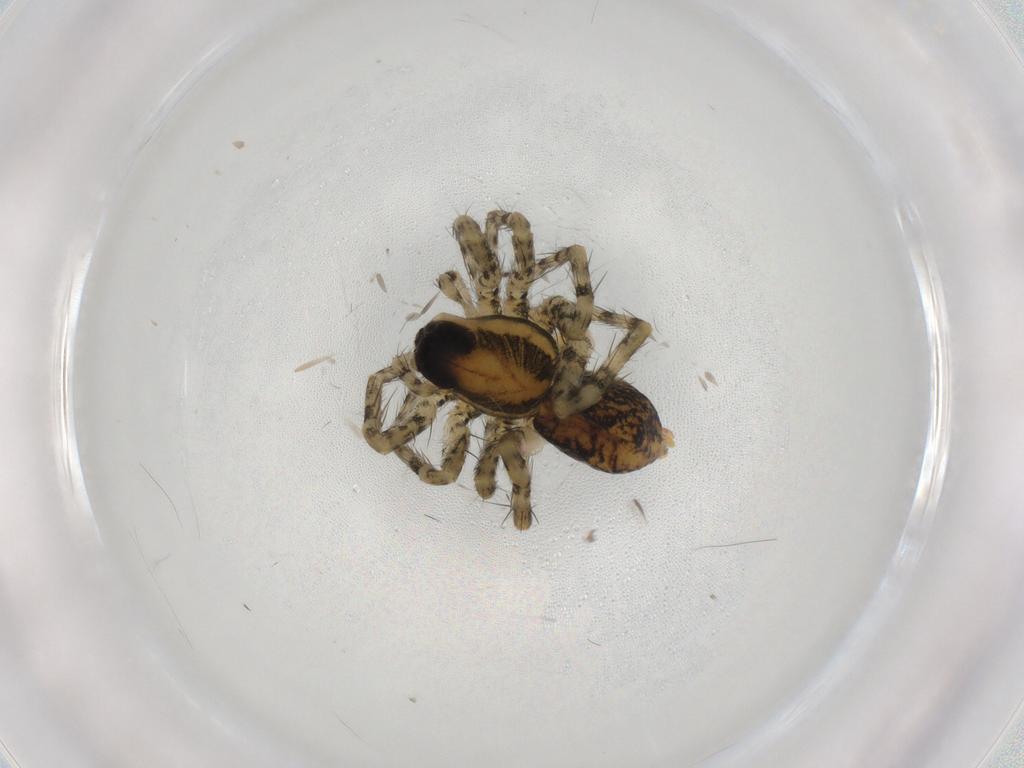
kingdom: Animalia
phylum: Arthropoda
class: Arachnida
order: Araneae
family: Lycosidae
